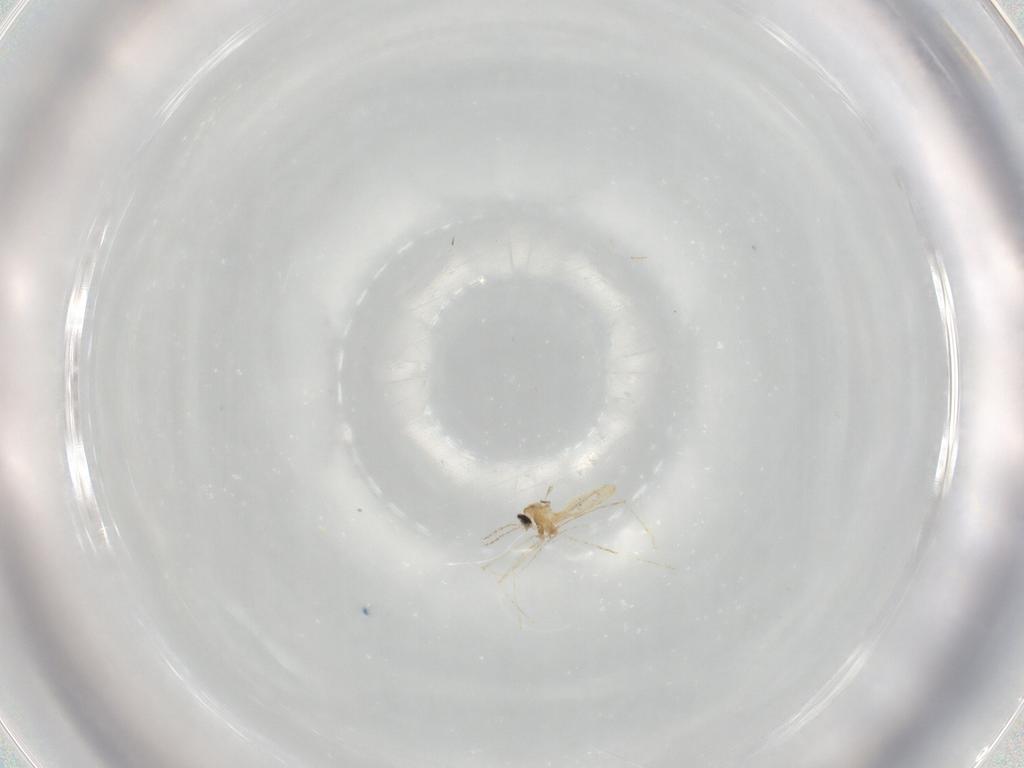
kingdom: Animalia
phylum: Arthropoda
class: Insecta
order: Diptera
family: Cecidomyiidae
